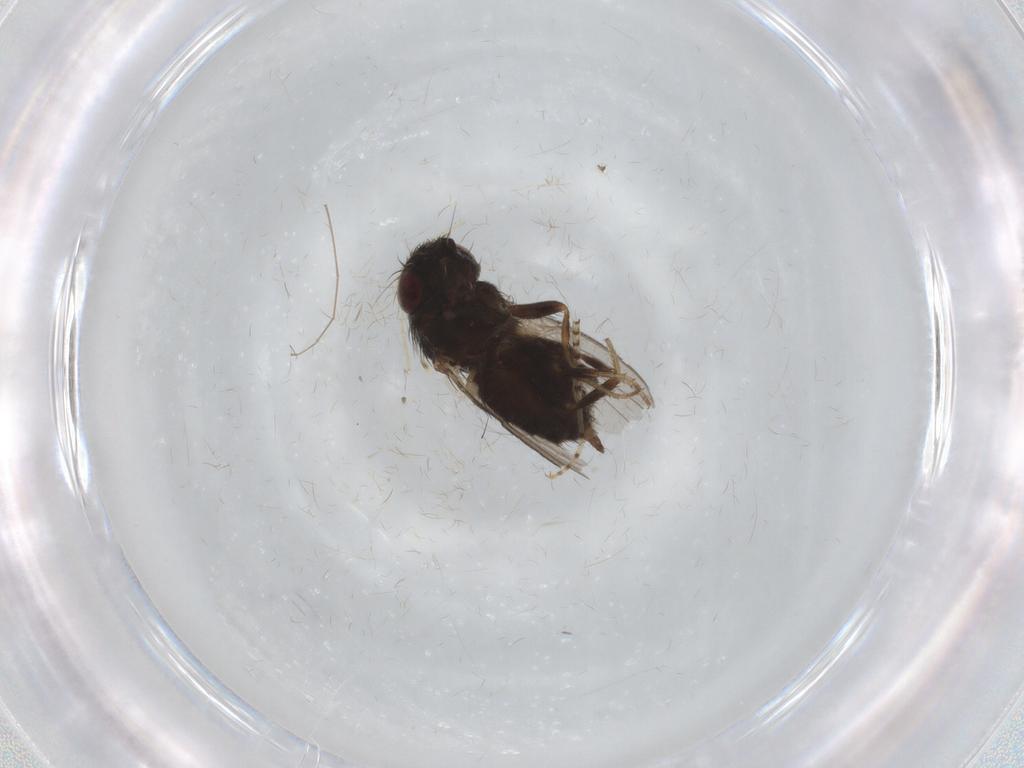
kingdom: Animalia
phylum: Arthropoda
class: Insecta
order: Diptera
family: Milichiidae
